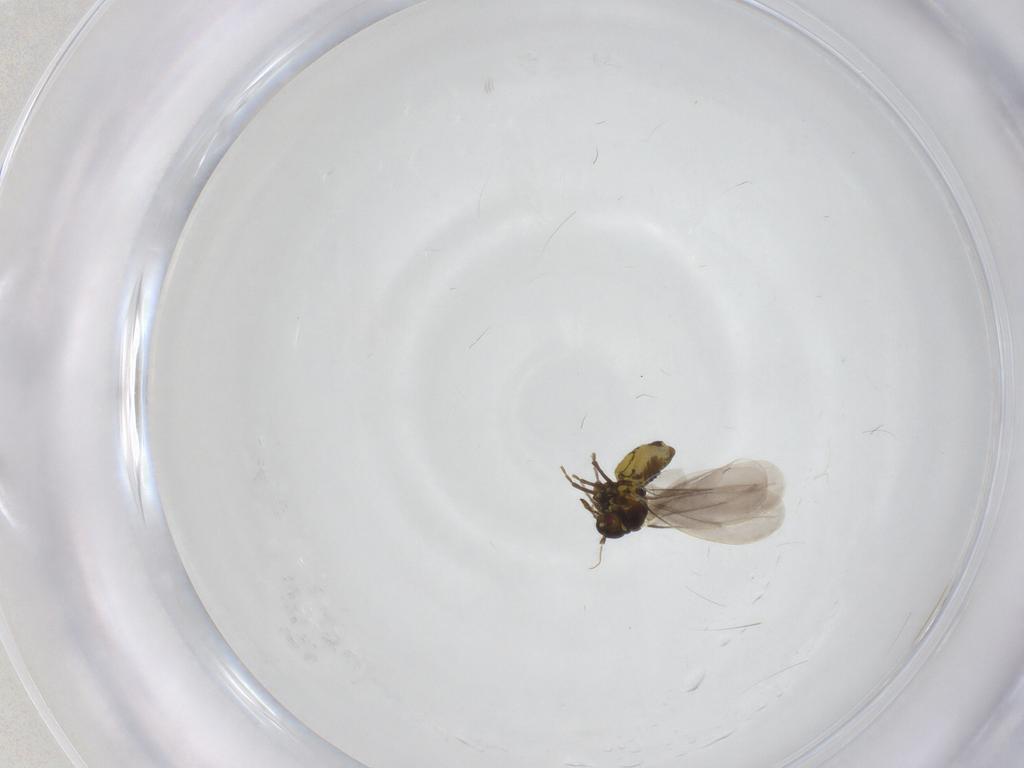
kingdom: Animalia
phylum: Arthropoda
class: Insecta
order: Hemiptera
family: Aleyrodidae
